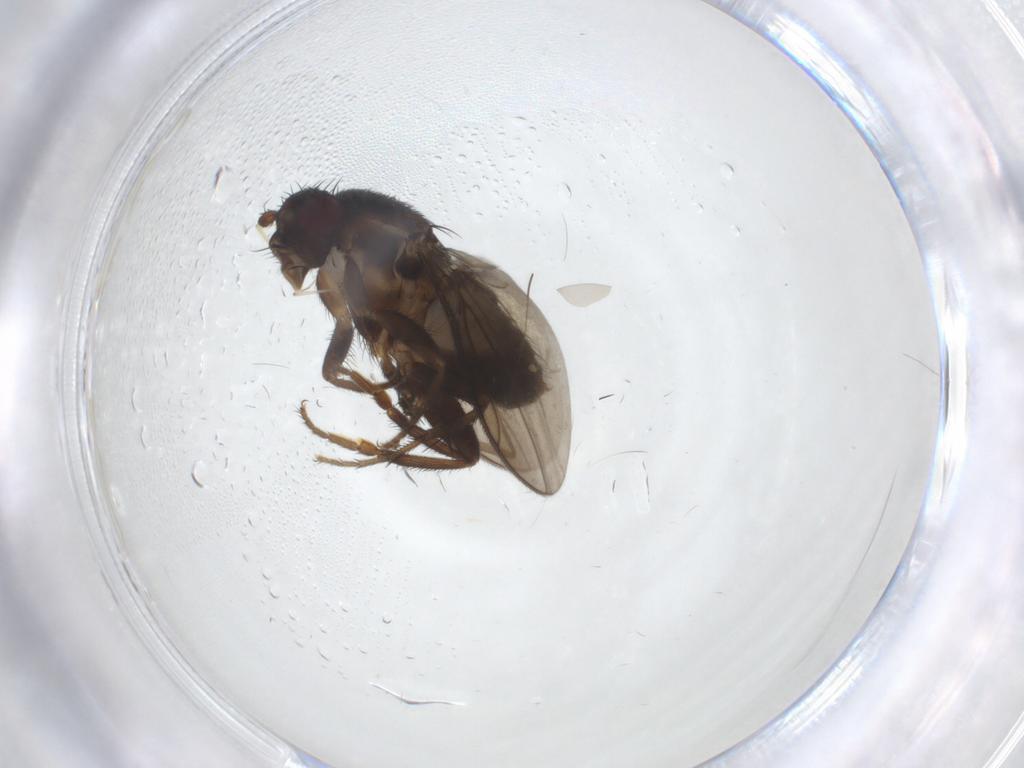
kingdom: Animalia
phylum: Arthropoda
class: Insecta
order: Diptera
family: Sphaeroceridae
